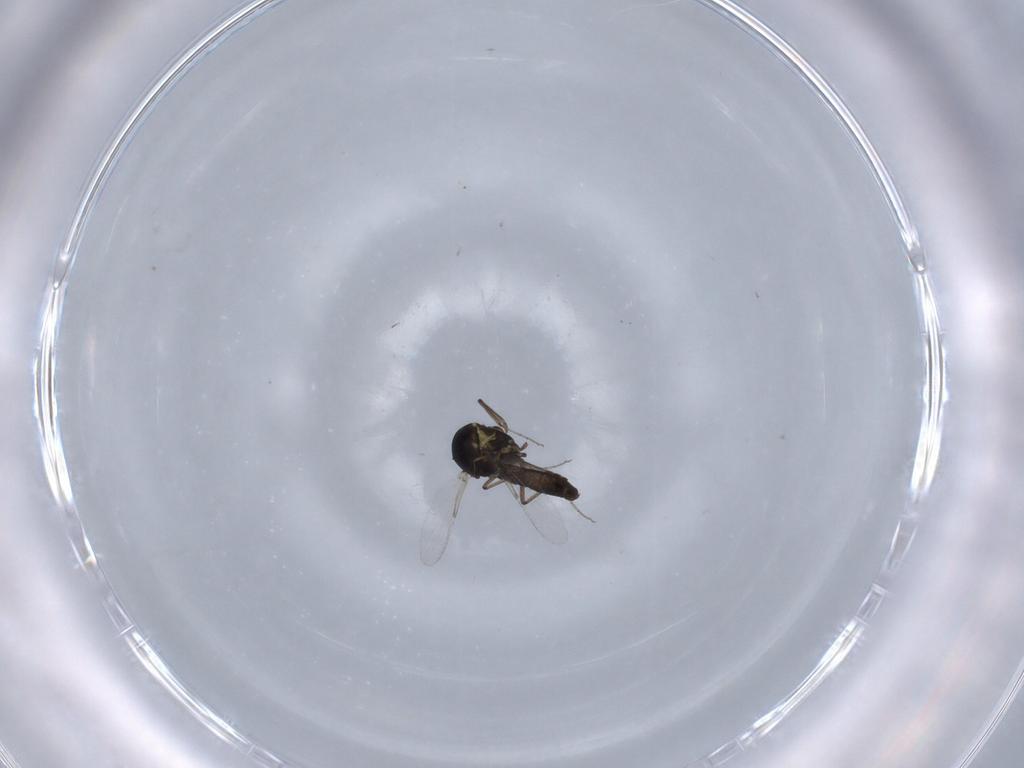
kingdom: Animalia
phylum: Arthropoda
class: Insecta
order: Diptera
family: Ceratopogonidae
